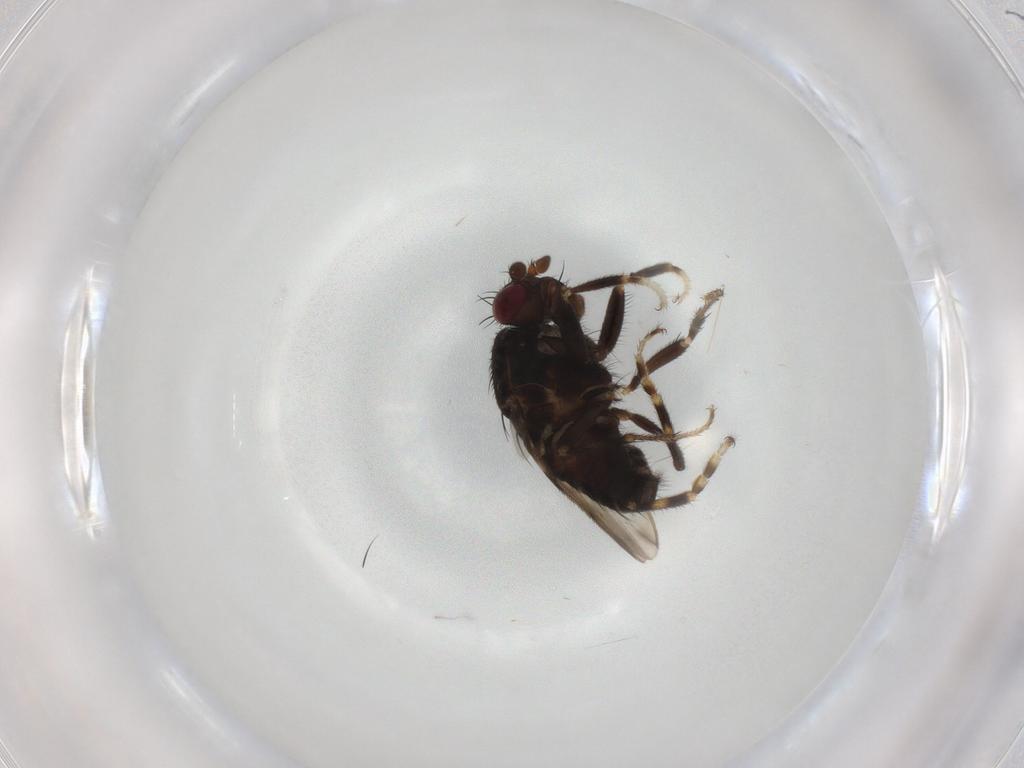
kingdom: Animalia
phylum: Arthropoda
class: Insecta
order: Diptera
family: Sphaeroceridae
